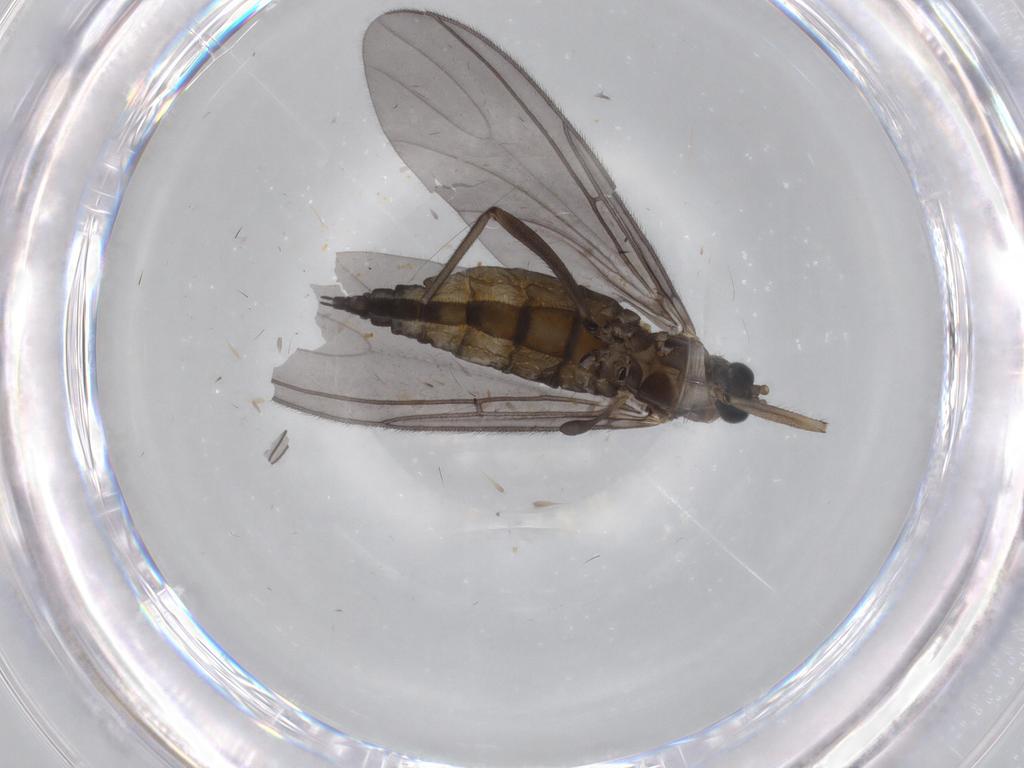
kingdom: Animalia
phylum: Arthropoda
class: Insecta
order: Diptera
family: Sciaridae
